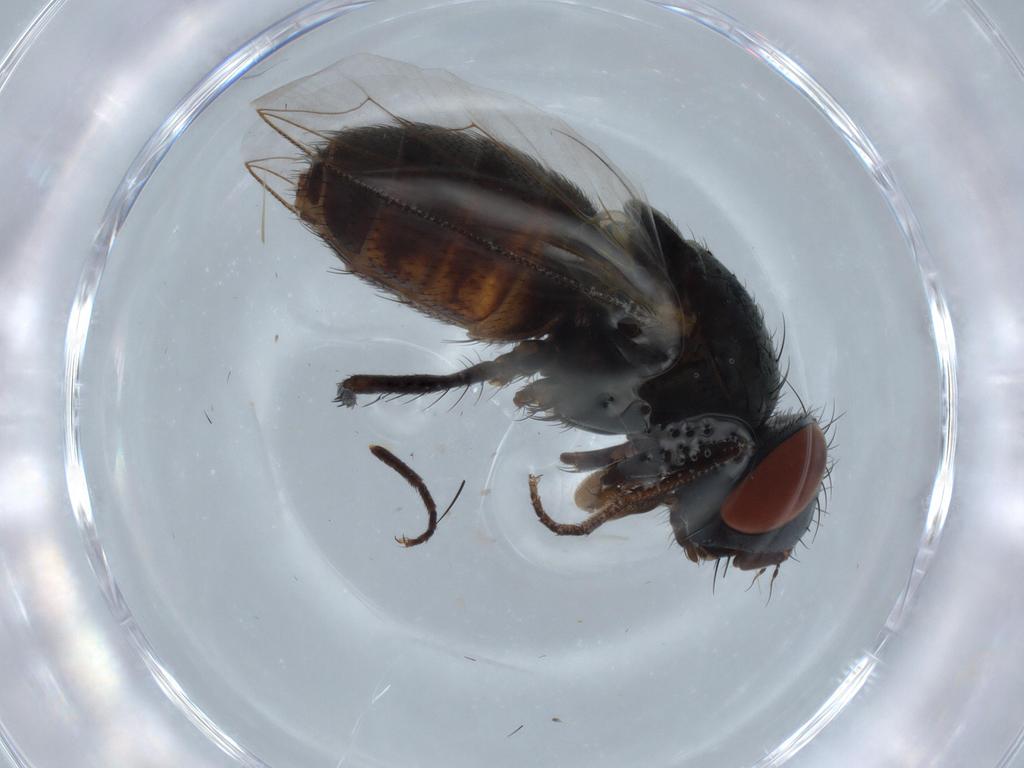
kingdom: Animalia
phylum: Arthropoda
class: Insecta
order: Diptera
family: Sarcophagidae
